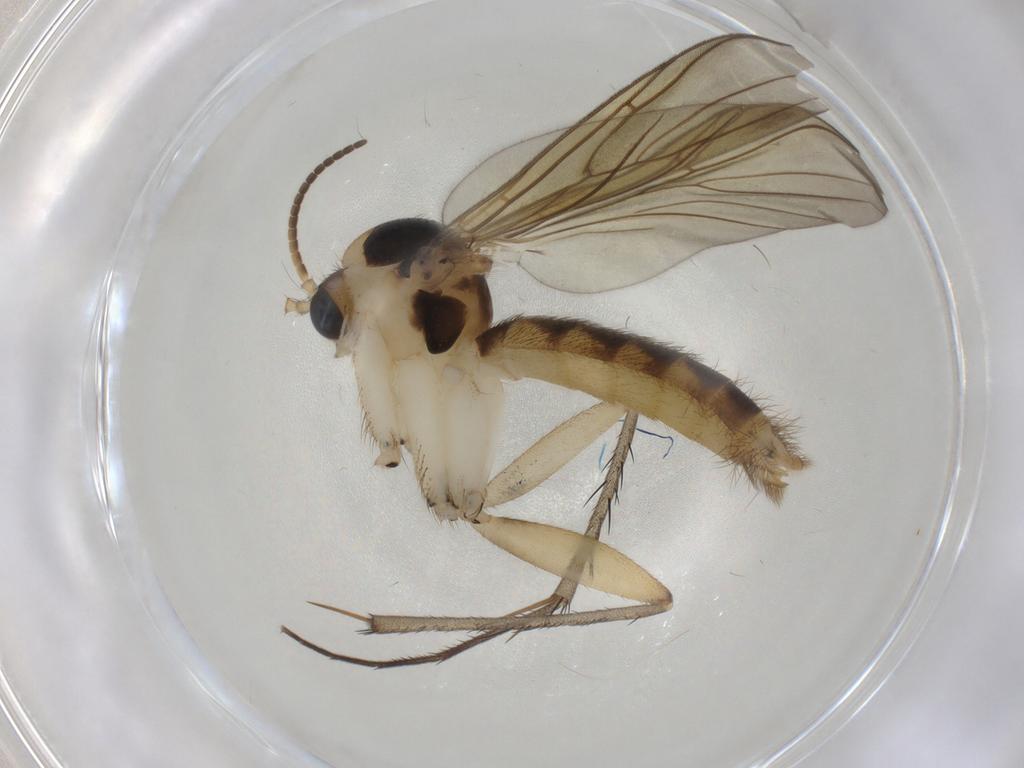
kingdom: Animalia
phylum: Arthropoda
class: Insecta
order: Diptera
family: Mycetophilidae
